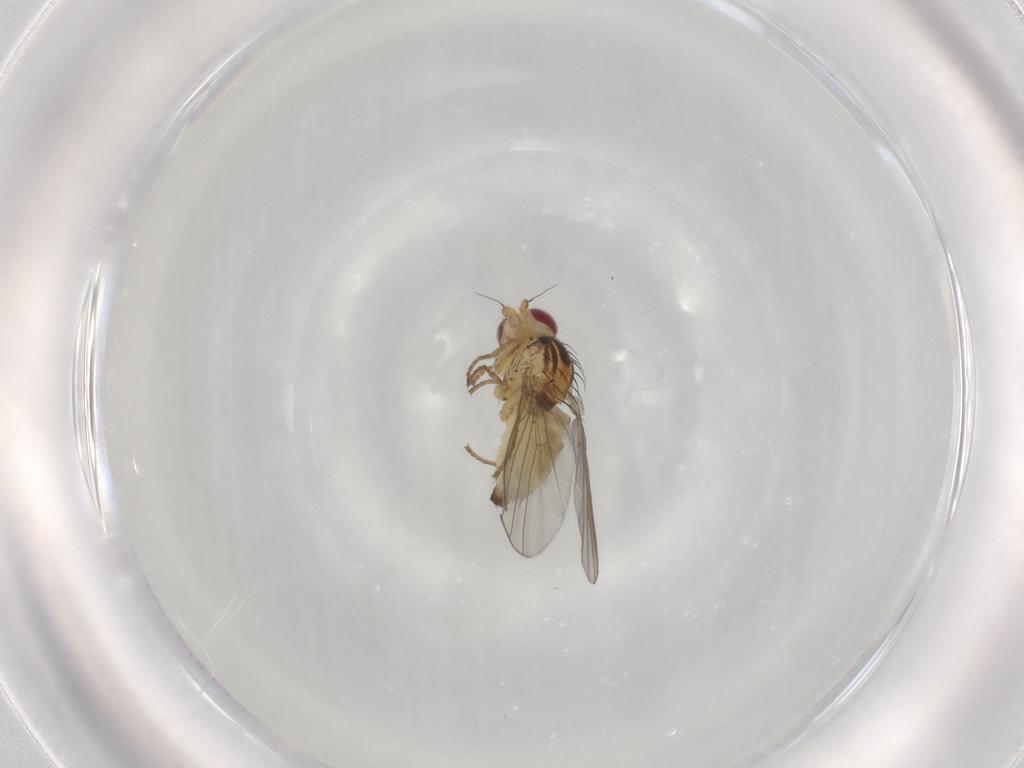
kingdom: Animalia
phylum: Arthropoda
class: Insecta
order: Diptera
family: Agromyzidae
